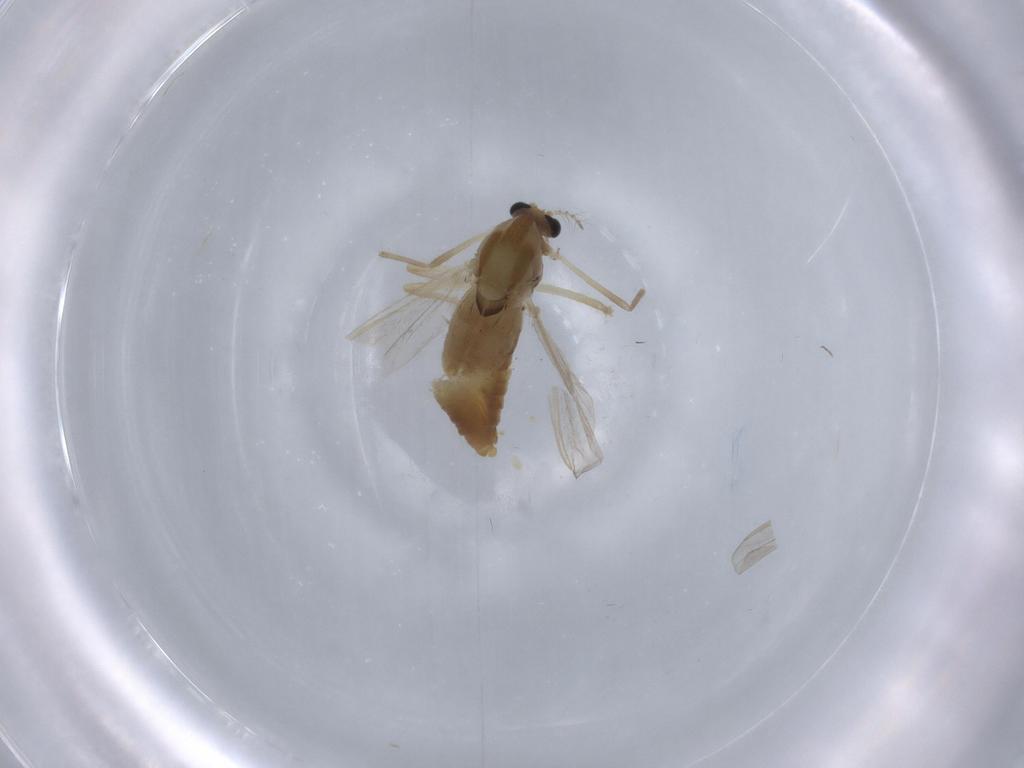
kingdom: Animalia
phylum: Arthropoda
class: Insecta
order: Diptera
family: Chironomidae
